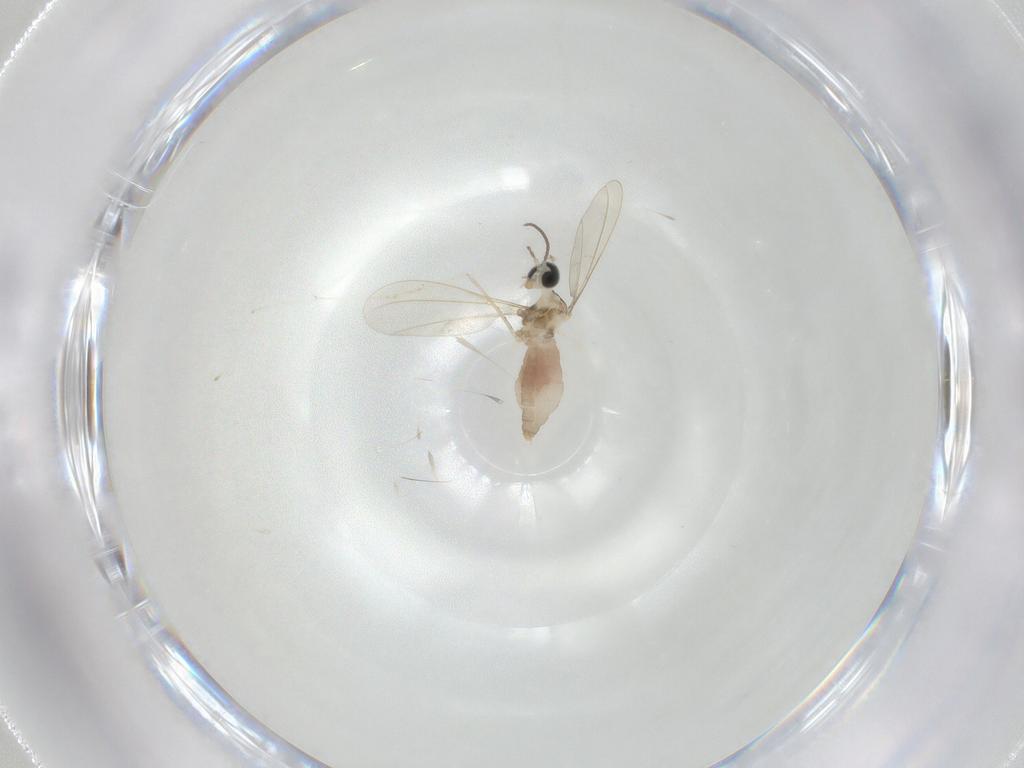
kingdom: Animalia
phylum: Arthropoda
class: Insecta
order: Diptera
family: Cecidomyiidae
